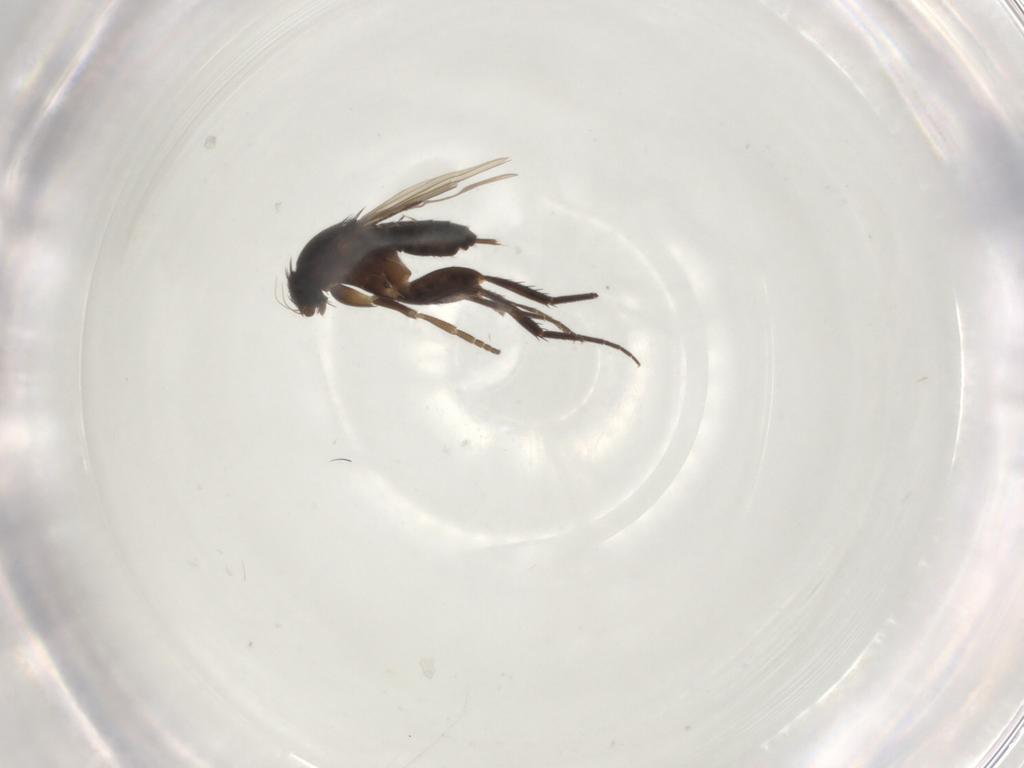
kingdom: Animalia
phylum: Arthropoda
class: Insecta
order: Diptera
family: Phoridae
